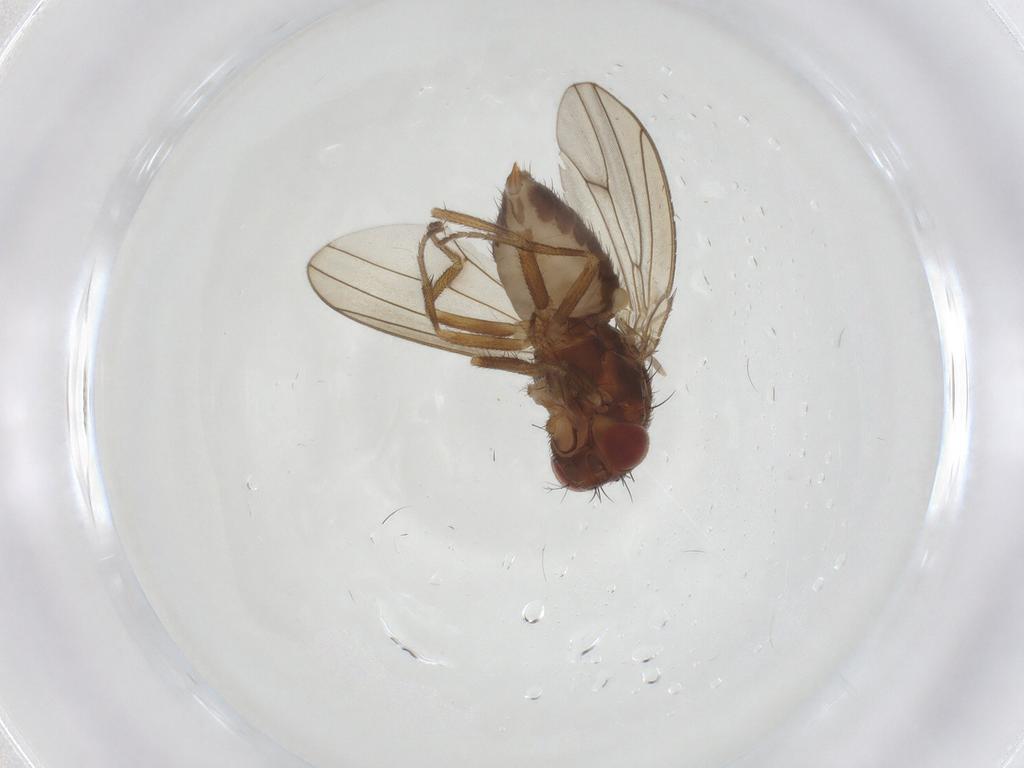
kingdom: Animalia
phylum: Arthropoda
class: Insecta
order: Diptera
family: Drosophilidae
